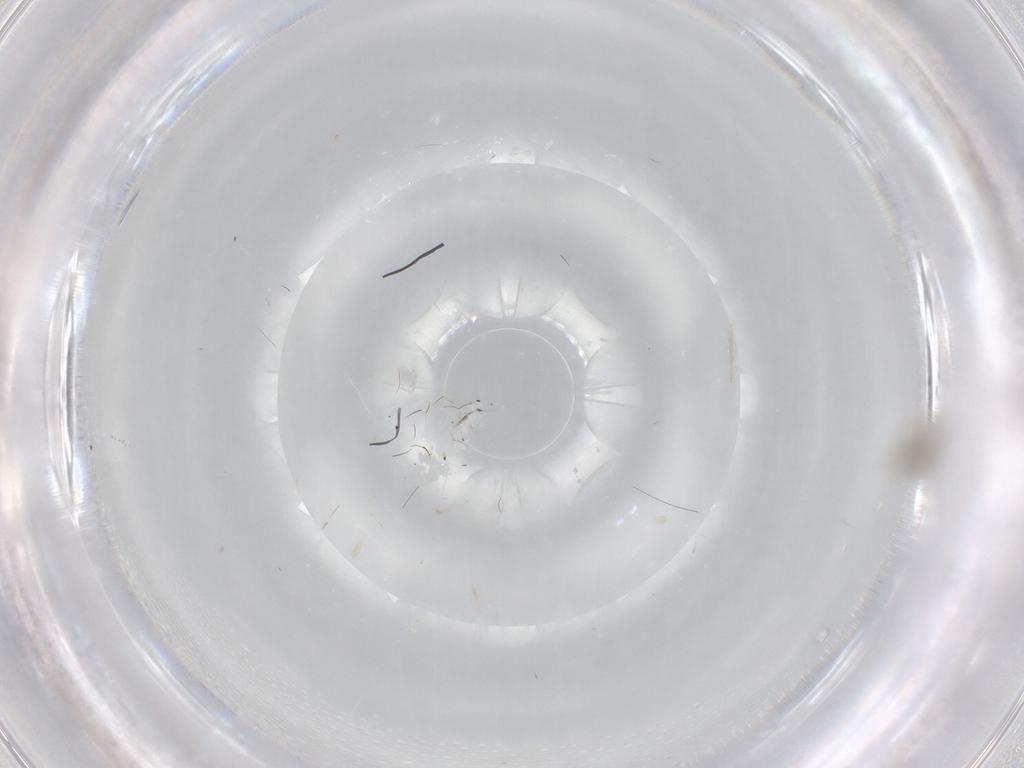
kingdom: Animalia
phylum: Arthropoda
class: Insecta
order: Diptera
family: Cecidomyiidae
